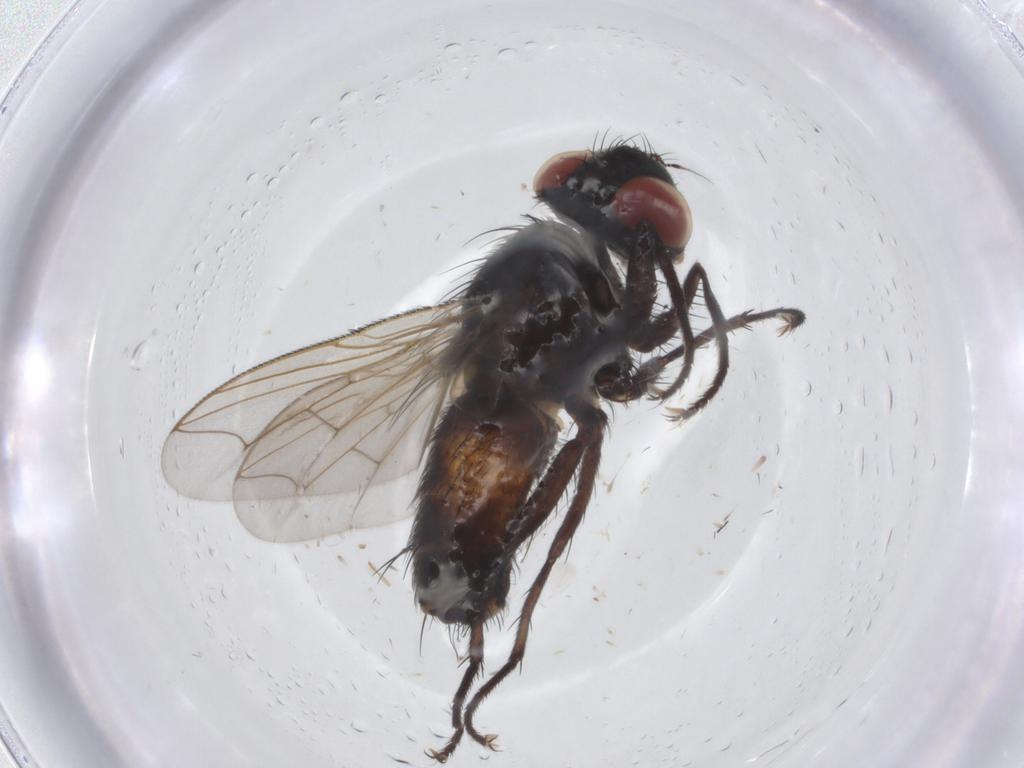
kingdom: Animalia
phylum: Arthropoda
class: Insecta
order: Diptera
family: Sarcophagidae
